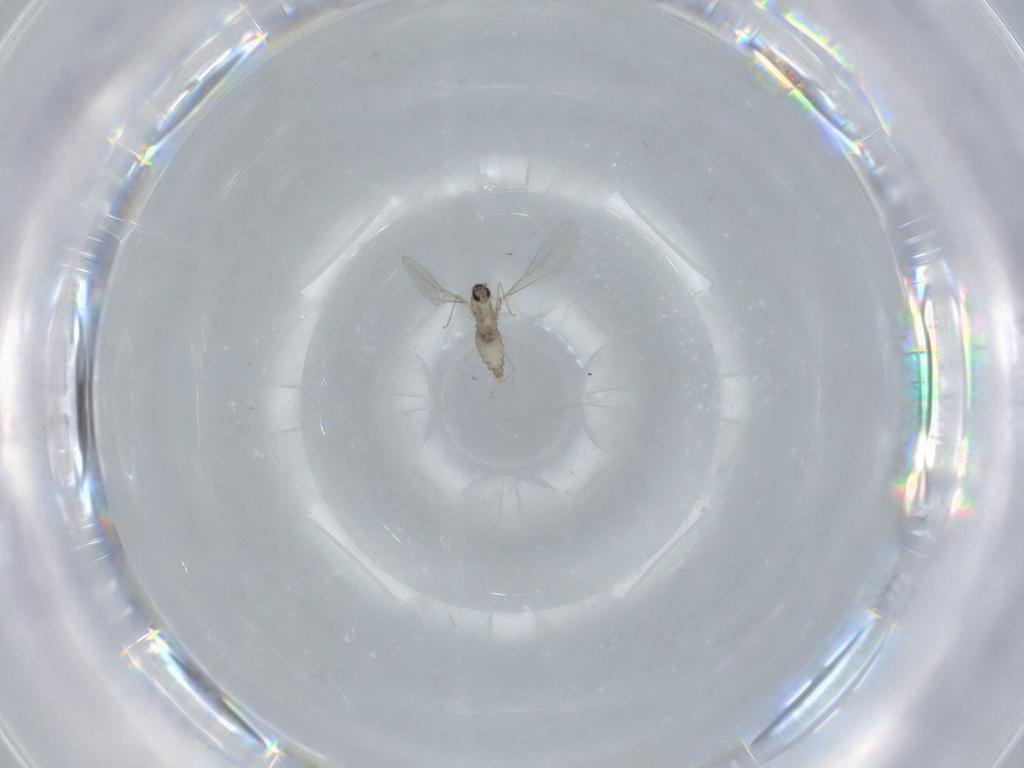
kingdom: Animalia
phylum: Arthropoda
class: Insecta
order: Diptera
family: Cecidomyiidae
